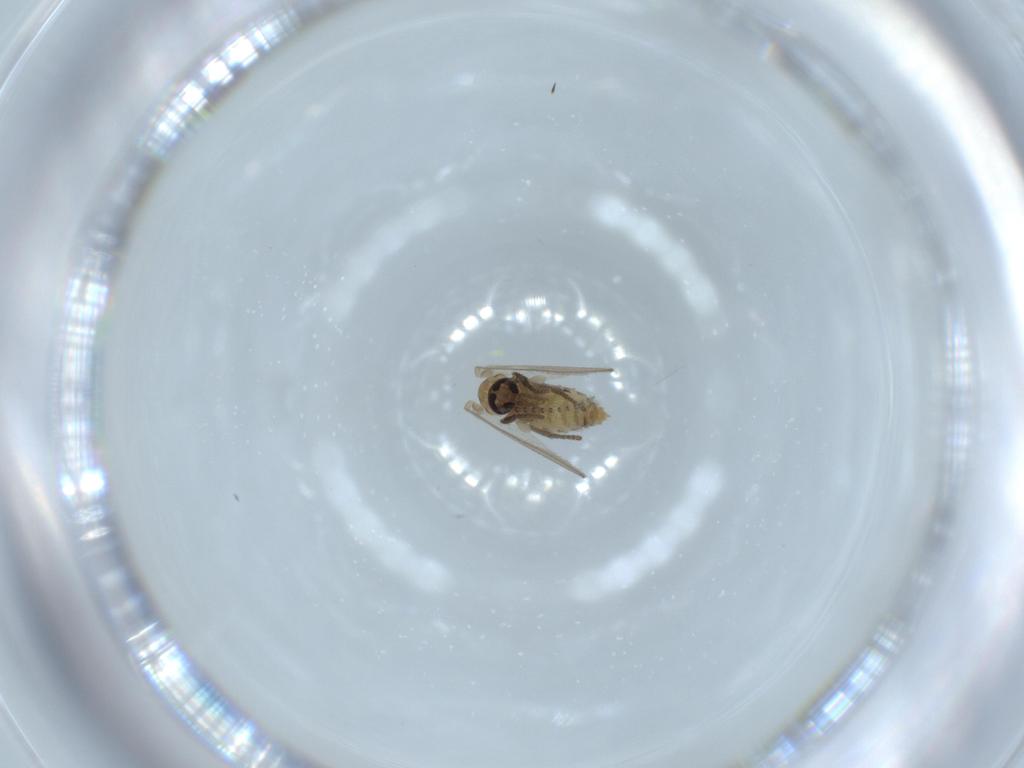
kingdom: Animalia
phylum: Arthropoda
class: Insecta
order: Diptera
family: Psychodidae
